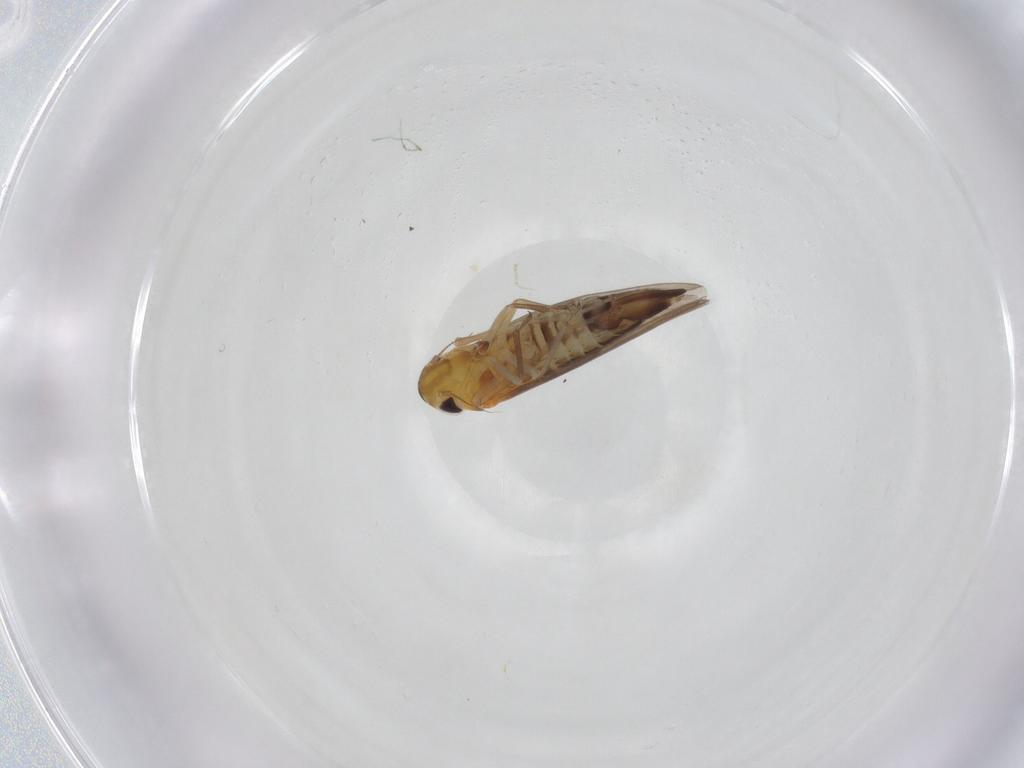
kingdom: Animalia
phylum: Arthropoda
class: Insecta
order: Hemiptera
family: Cicadellidae
